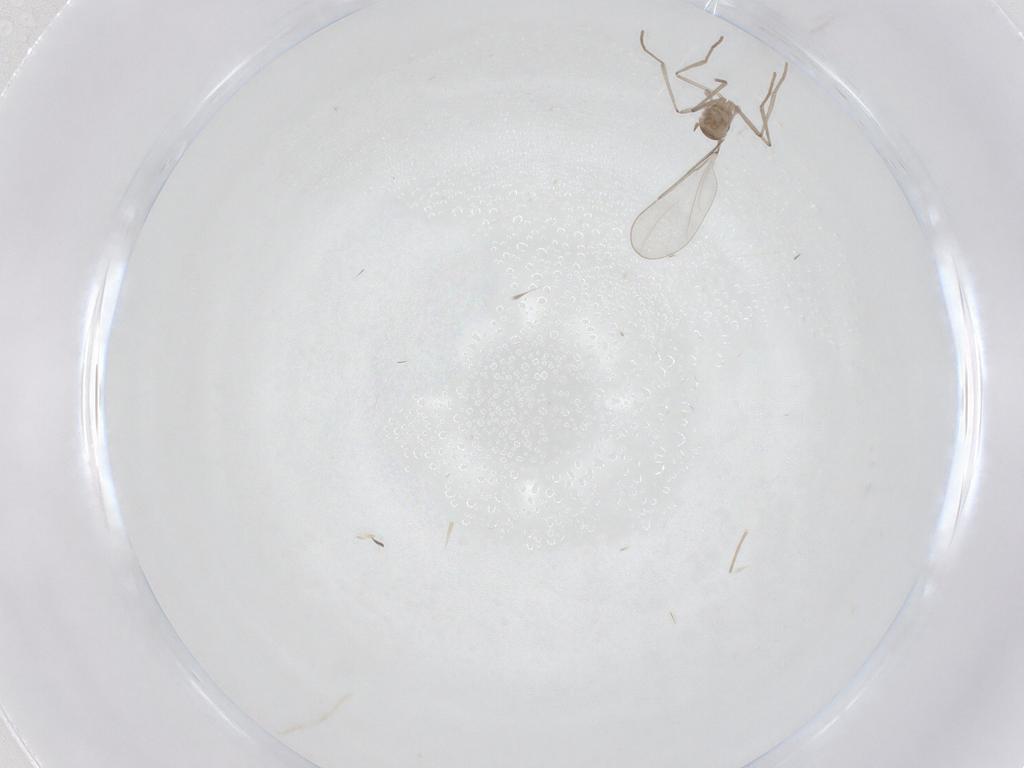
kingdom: Animalia
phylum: Arthropoda
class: Insecta
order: Diptera
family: Cecidomyiidae
